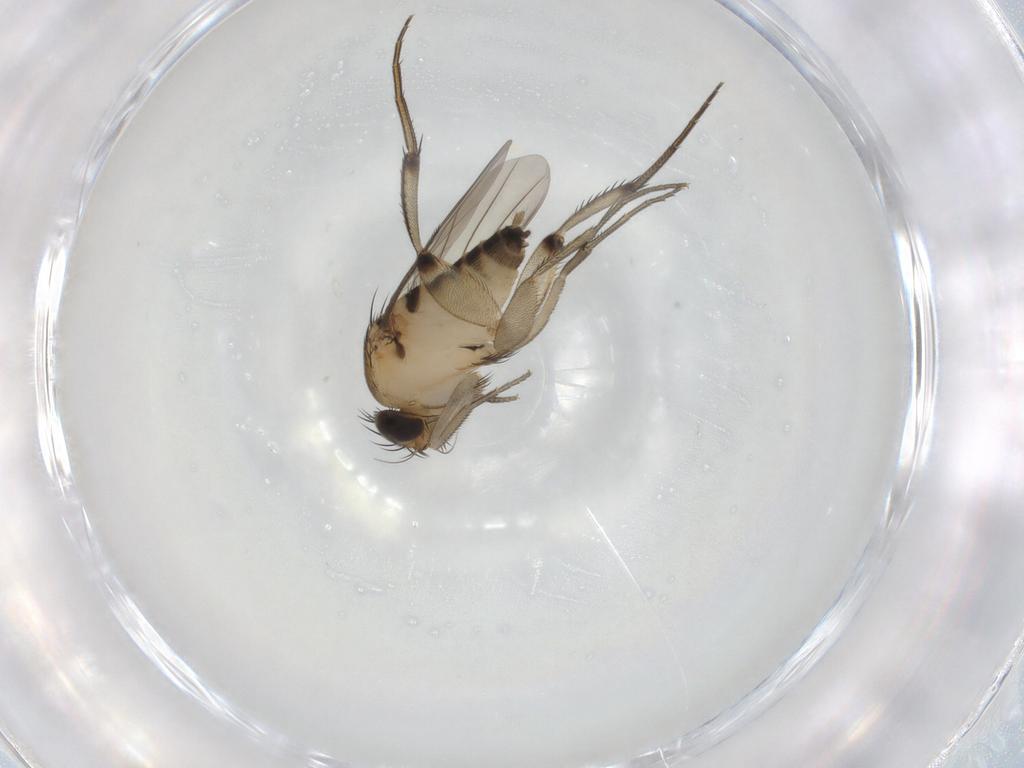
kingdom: Animalia
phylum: Arthropoda
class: Insecta
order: Diptera
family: Phoridae
